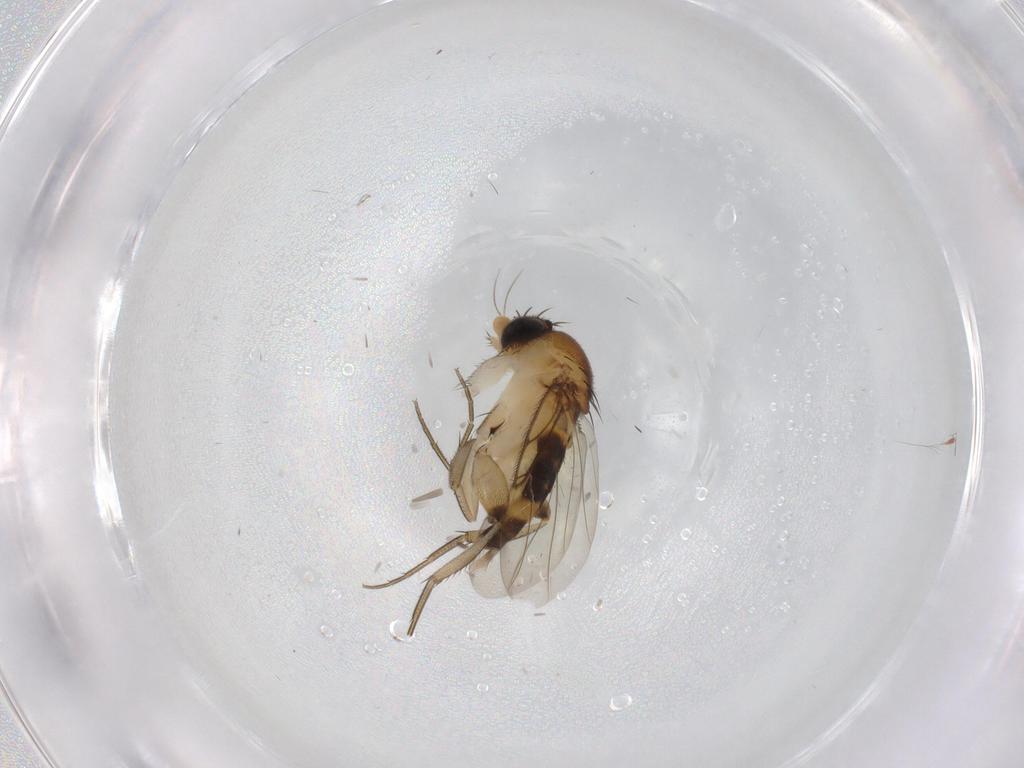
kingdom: Animalia
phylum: Arthropoda
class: Insecta
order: Diptera
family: Phoridae
